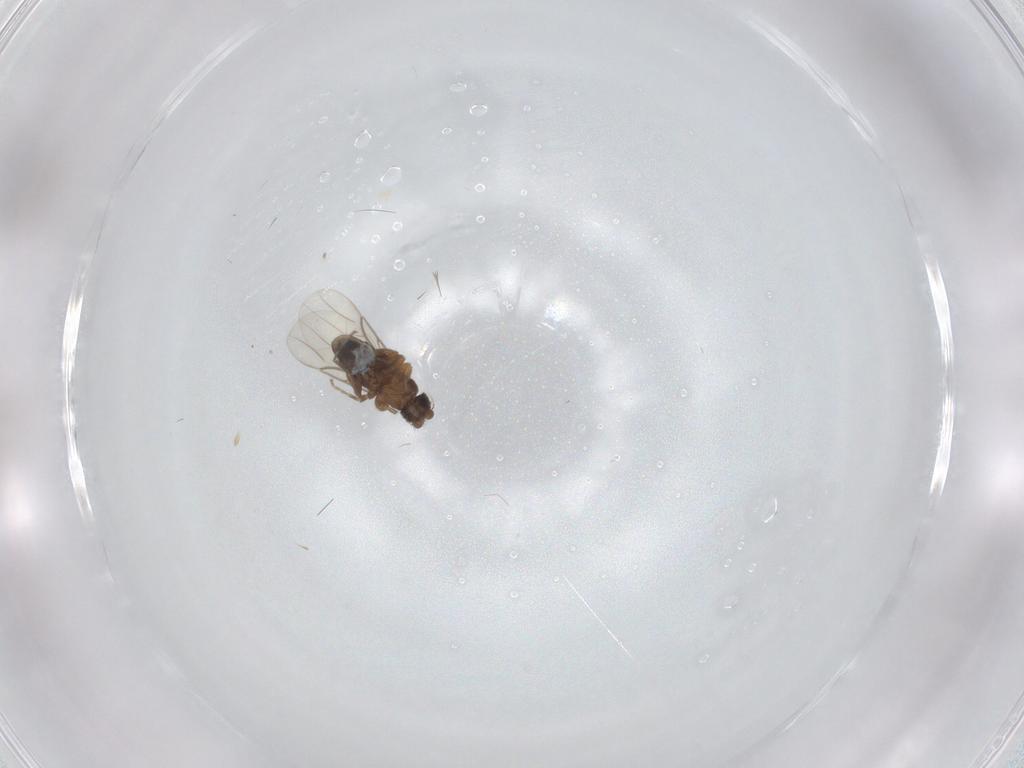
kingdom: Animalia
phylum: Arthropoda
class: Insecta
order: Diptera
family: Phoridae
